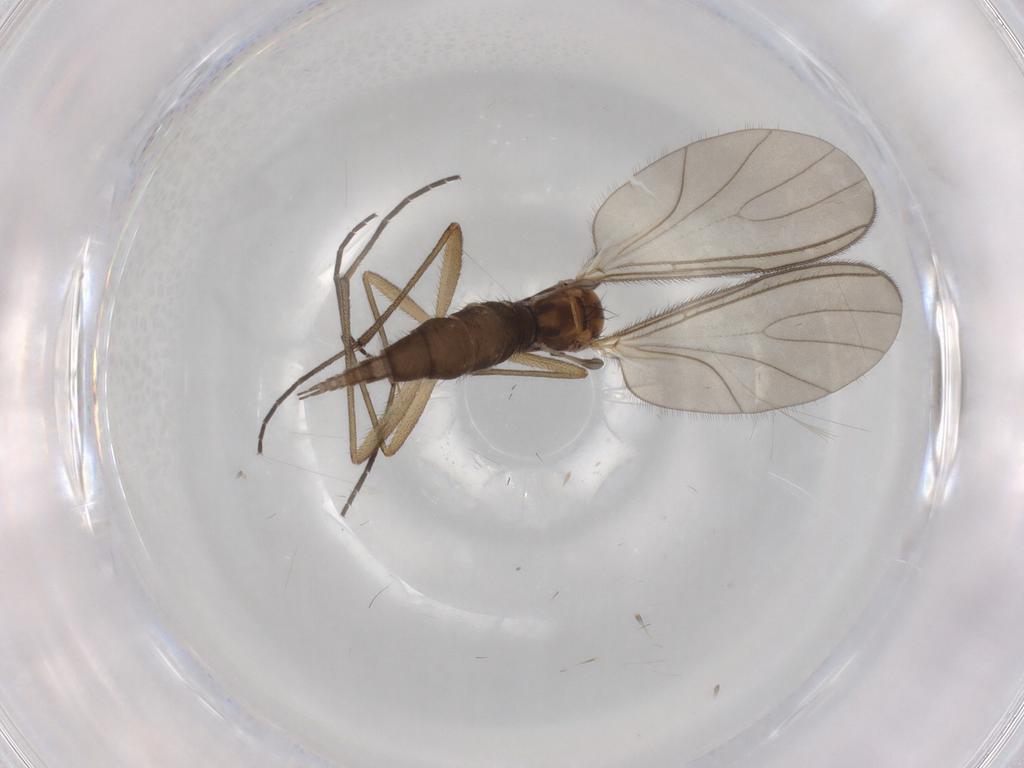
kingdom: Animalia
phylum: Arthropoda
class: Insecta
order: Diptera
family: Sciaridae
